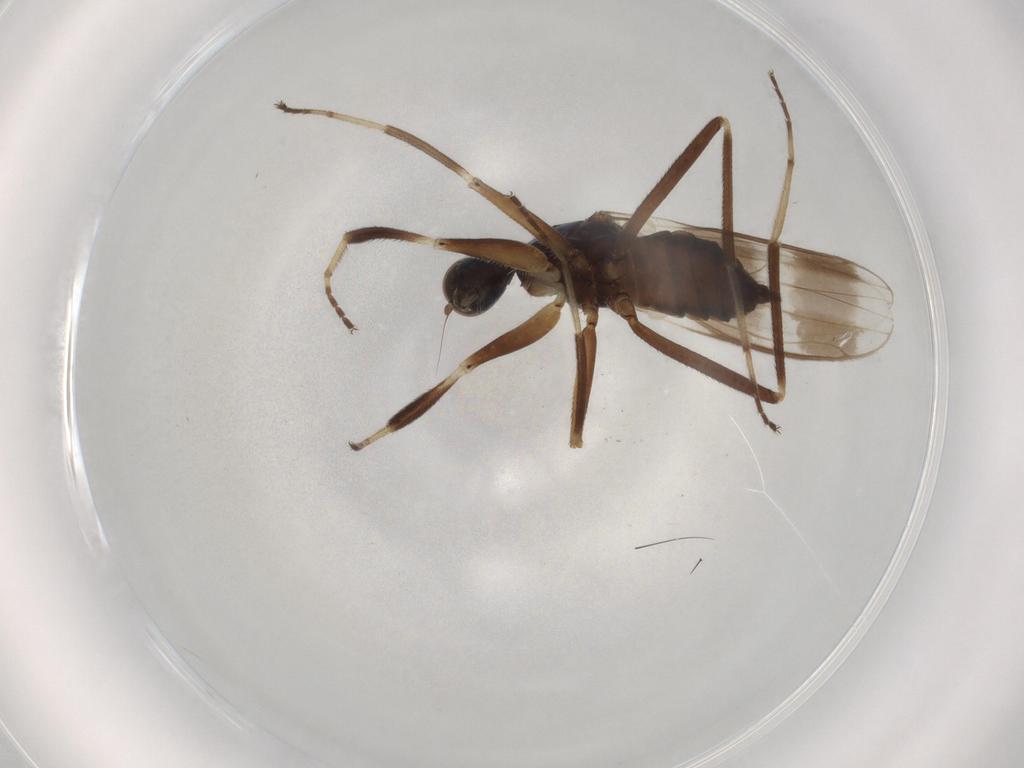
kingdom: Animalia
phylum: Arthropoda
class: Insecta
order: Diptera
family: Hybotidae
